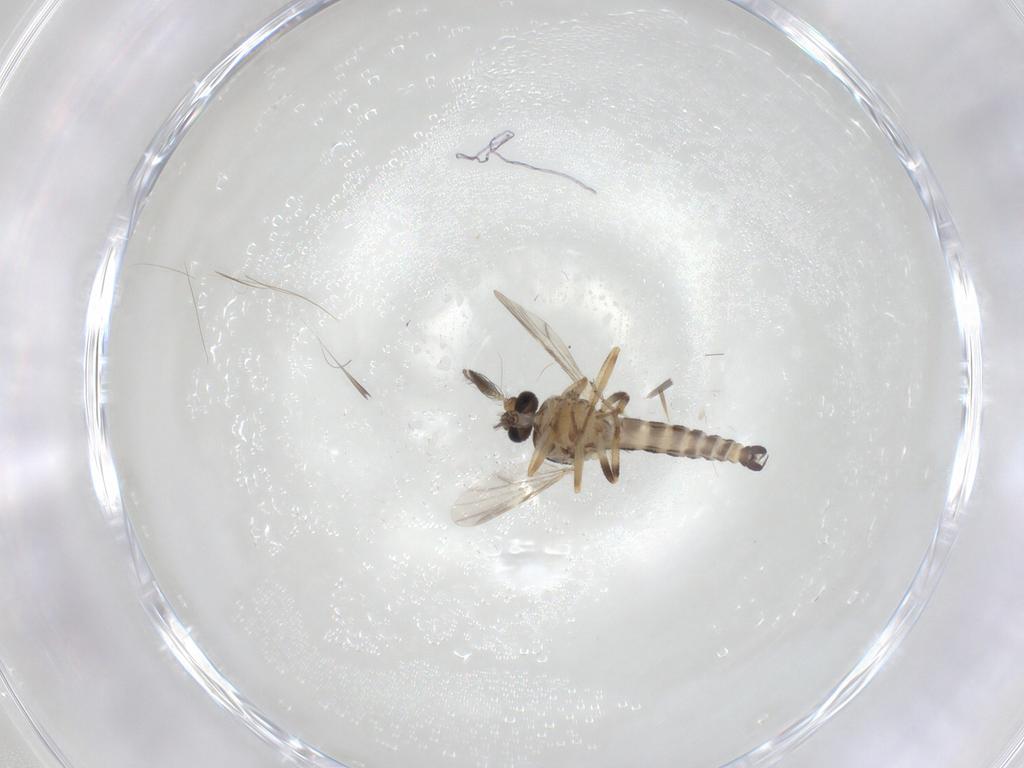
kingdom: Animalia
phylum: Arthropoda
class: Insecta
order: Diptera
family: Ceratopogonidae
